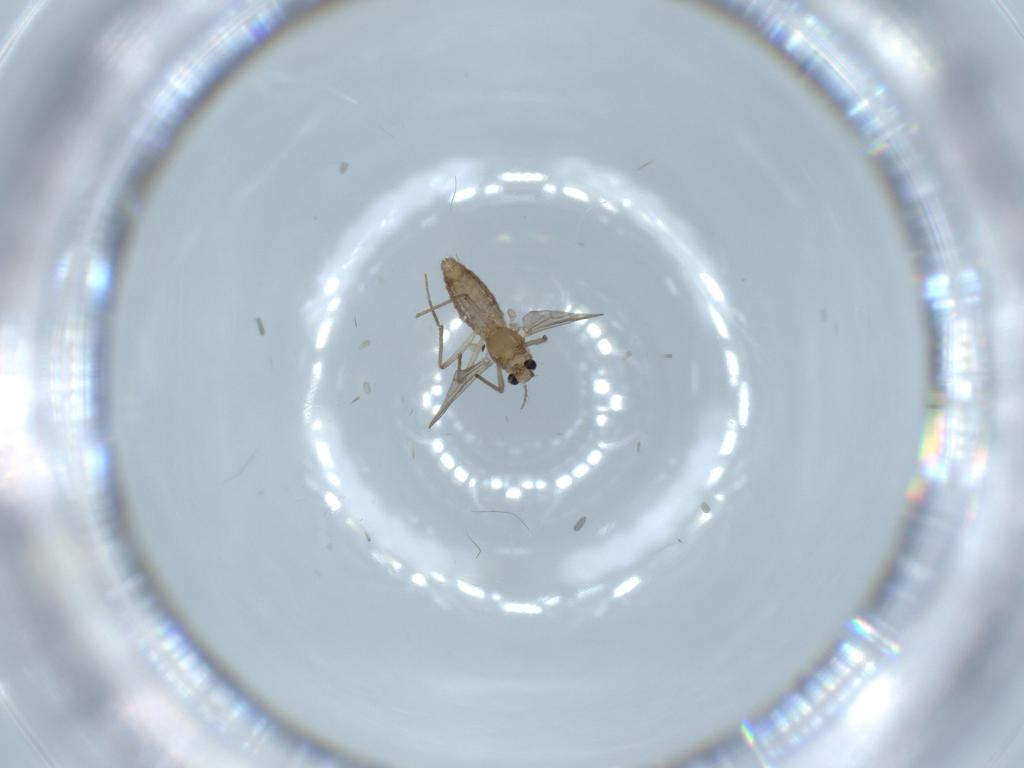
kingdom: Animalia
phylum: Arthropoda
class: Insecta
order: Diptera
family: Chironomidae
